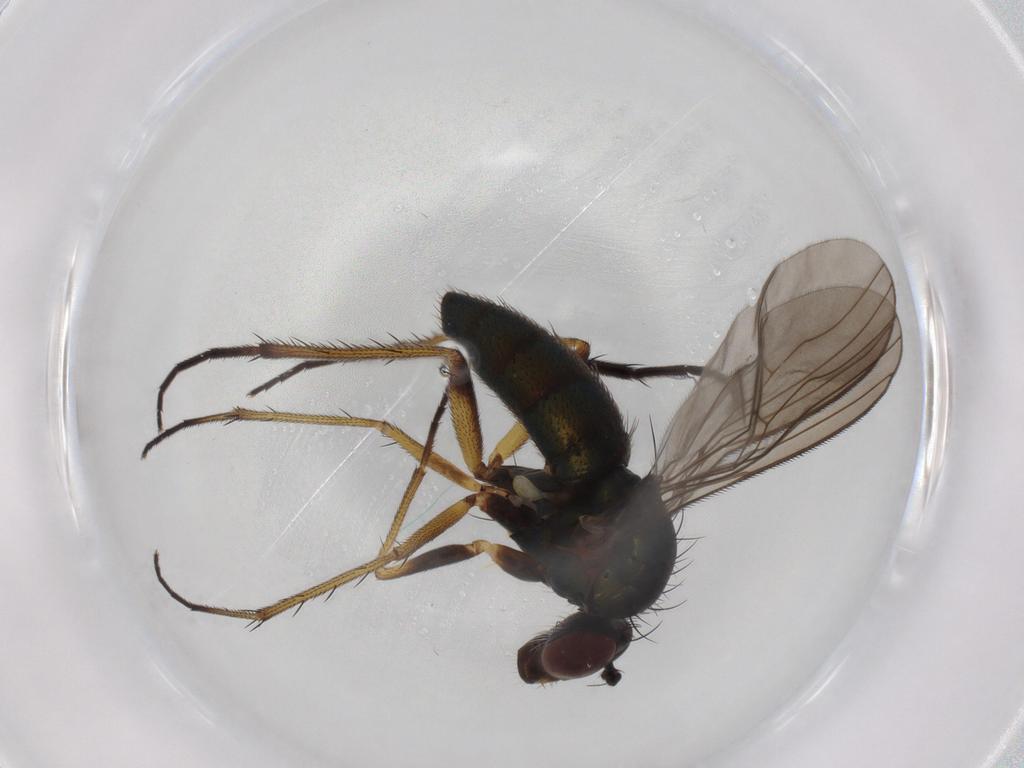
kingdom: Animalia
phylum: Arthropoda
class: Insecta
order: Diptera
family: Dolichopodidae
